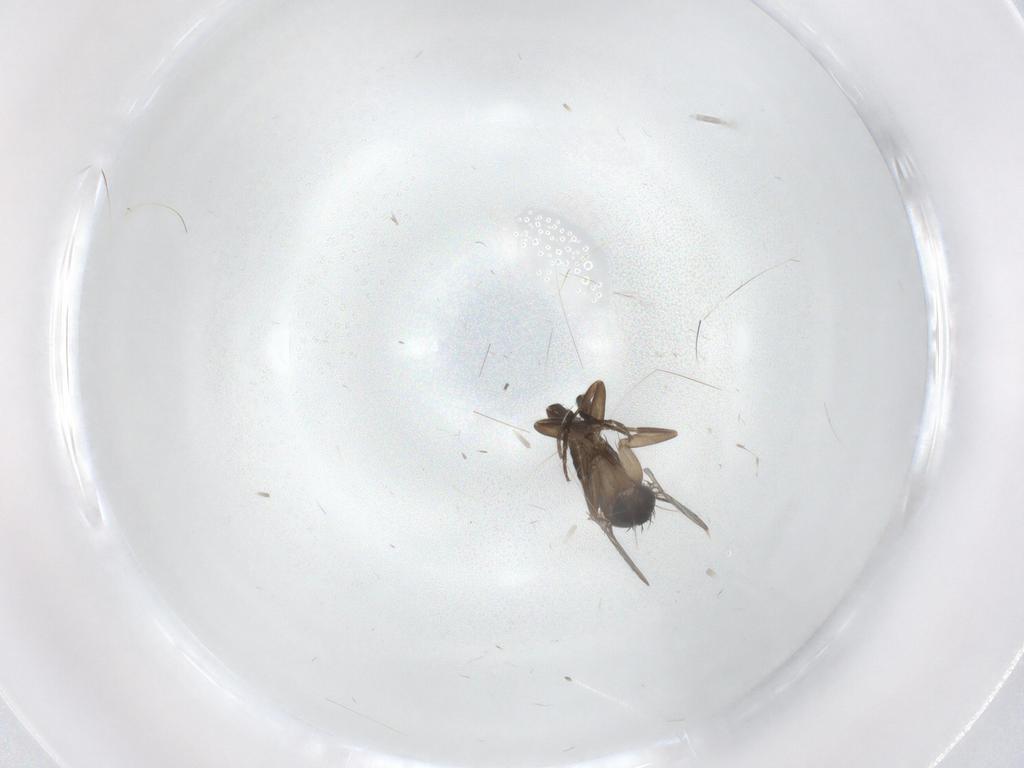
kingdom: Animalia
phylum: Arthropoda
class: Insecta
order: Diptera
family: Phoridae
